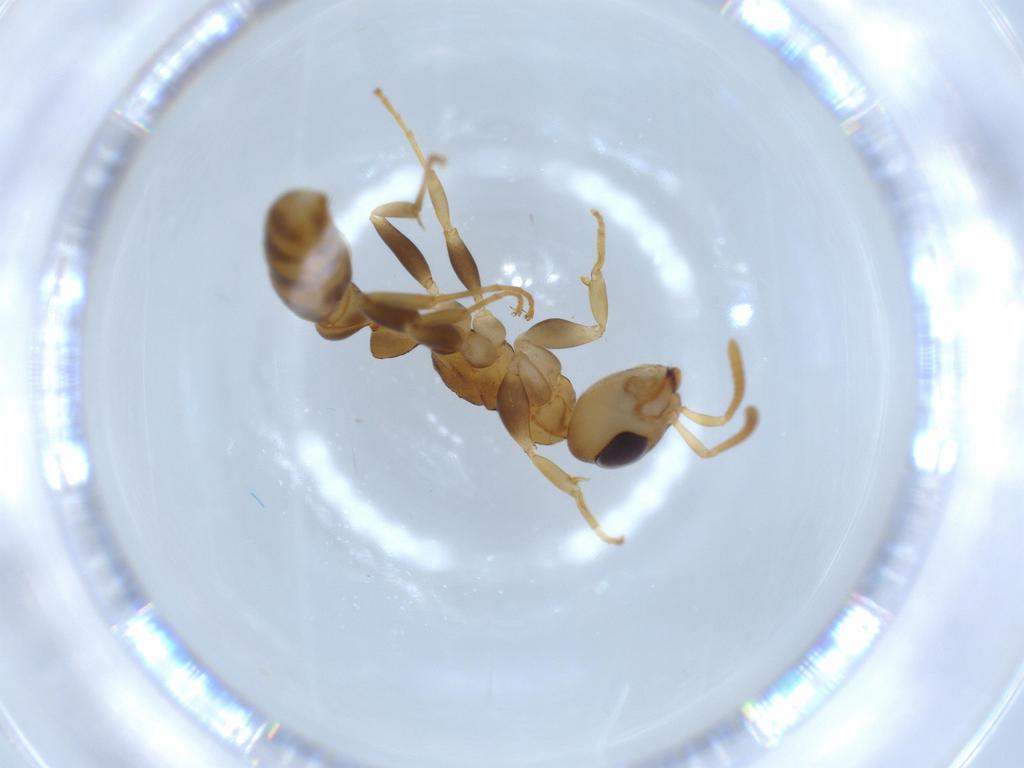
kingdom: Animalia
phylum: Arthropoda
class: Insecta
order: Hymenoptera
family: Formicidae
